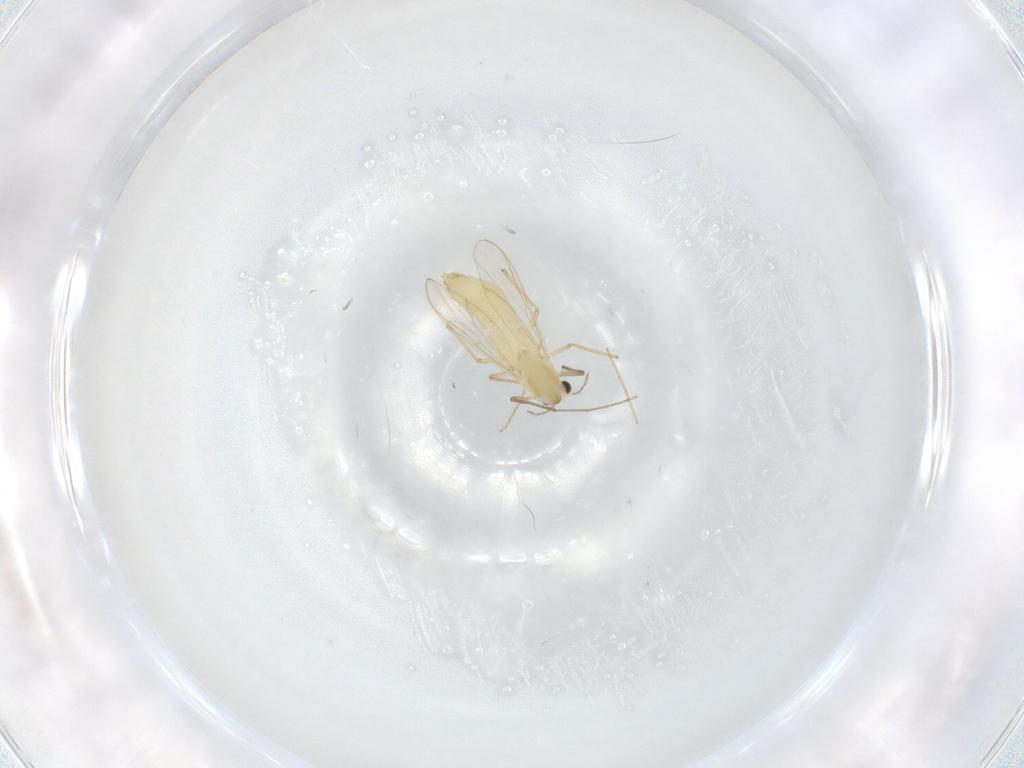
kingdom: Animalia
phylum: Arthropoda
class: Insecta
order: Diptera
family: Chironomidae
